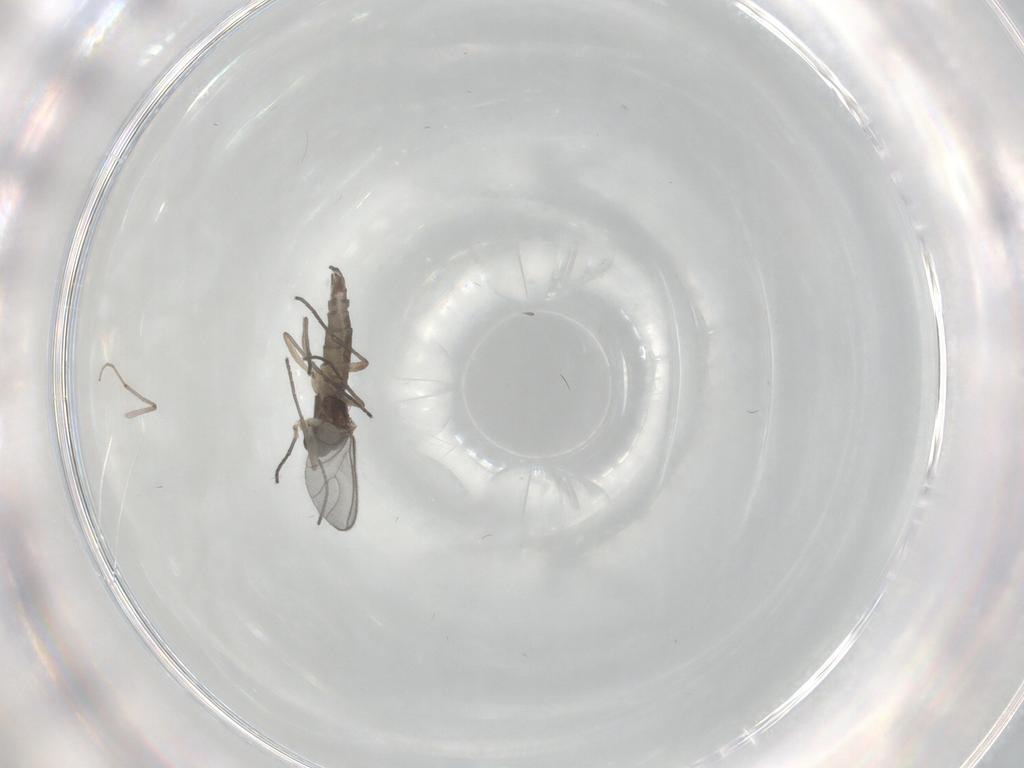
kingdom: Animalia
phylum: Arthropoda
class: Insecta
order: Diptera
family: Sciaridae
